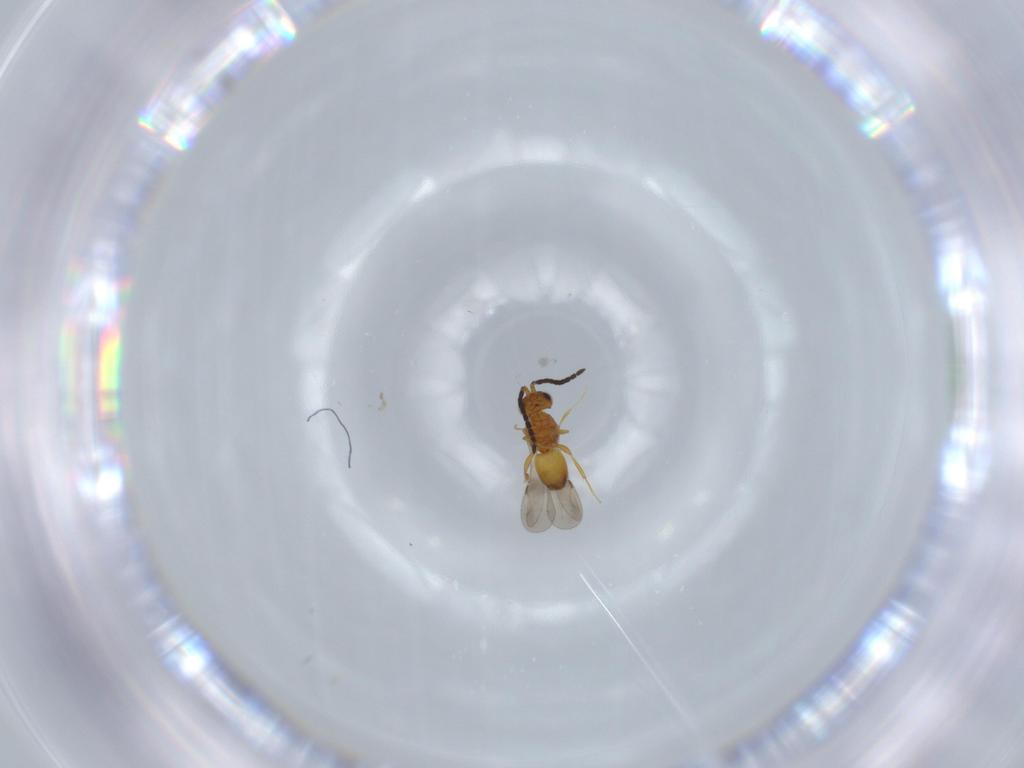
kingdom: Animalia
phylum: Arthropoda
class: Insecta
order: Hymenoptera
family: Ceraphronidae
